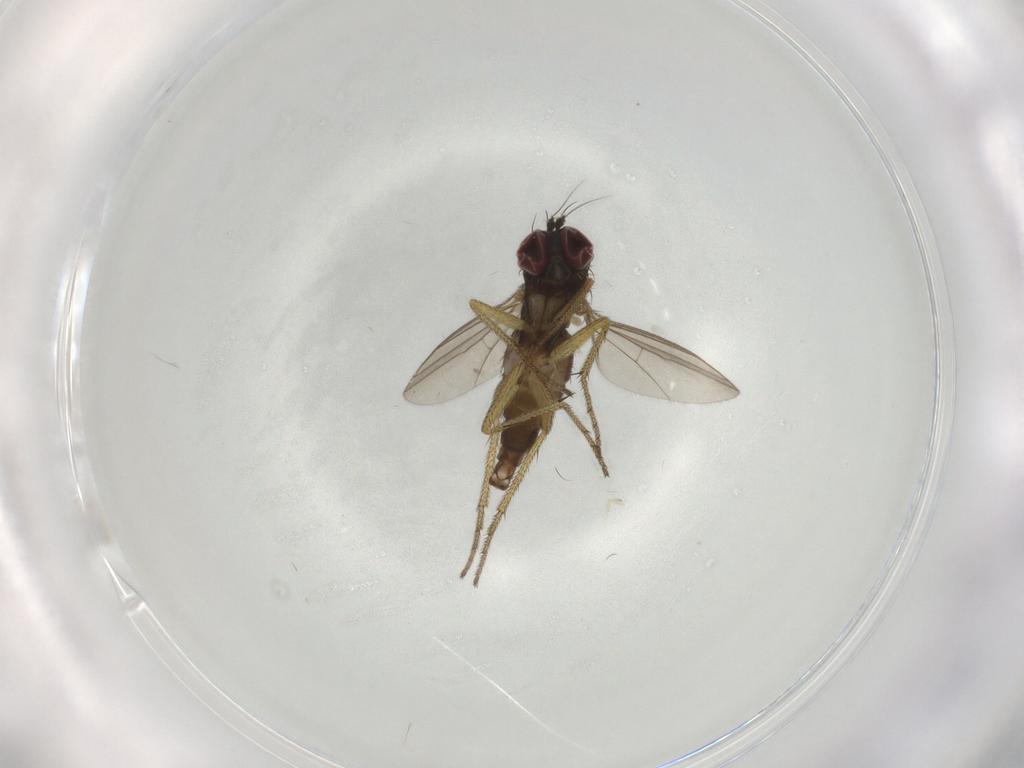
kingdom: Animalia
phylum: Arthropoda
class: Insecta
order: Diptera
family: Dolichopodidae
